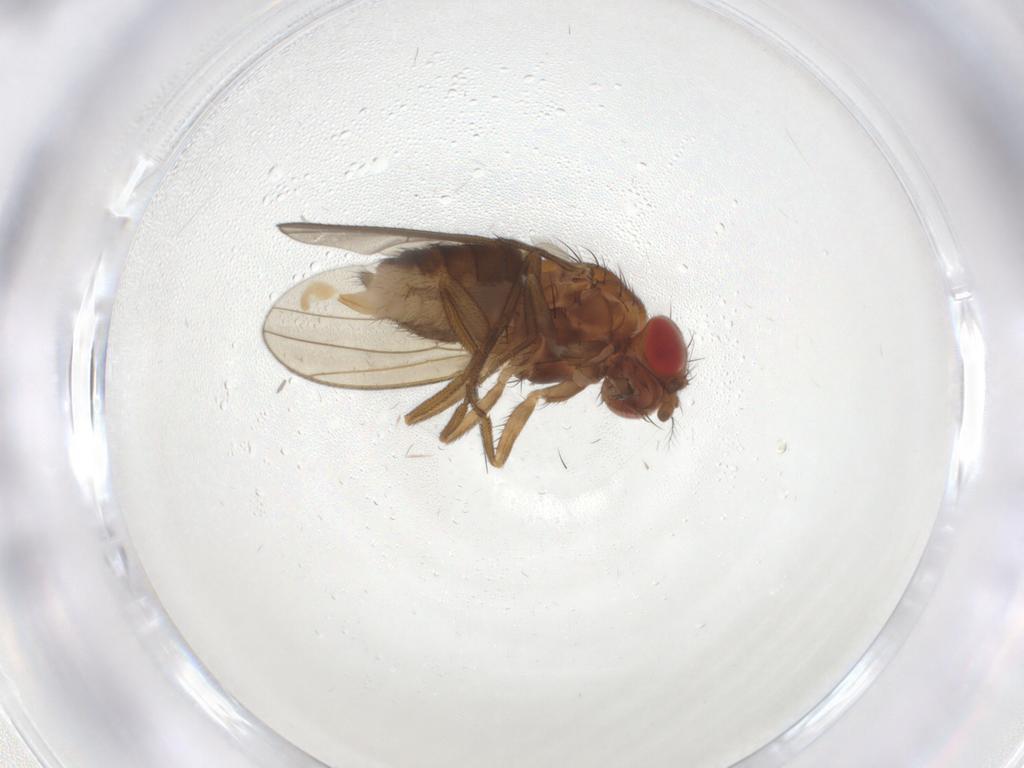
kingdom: Animalia
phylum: Arthropoda
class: Insecta
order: Diptera
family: Drosophilidae
